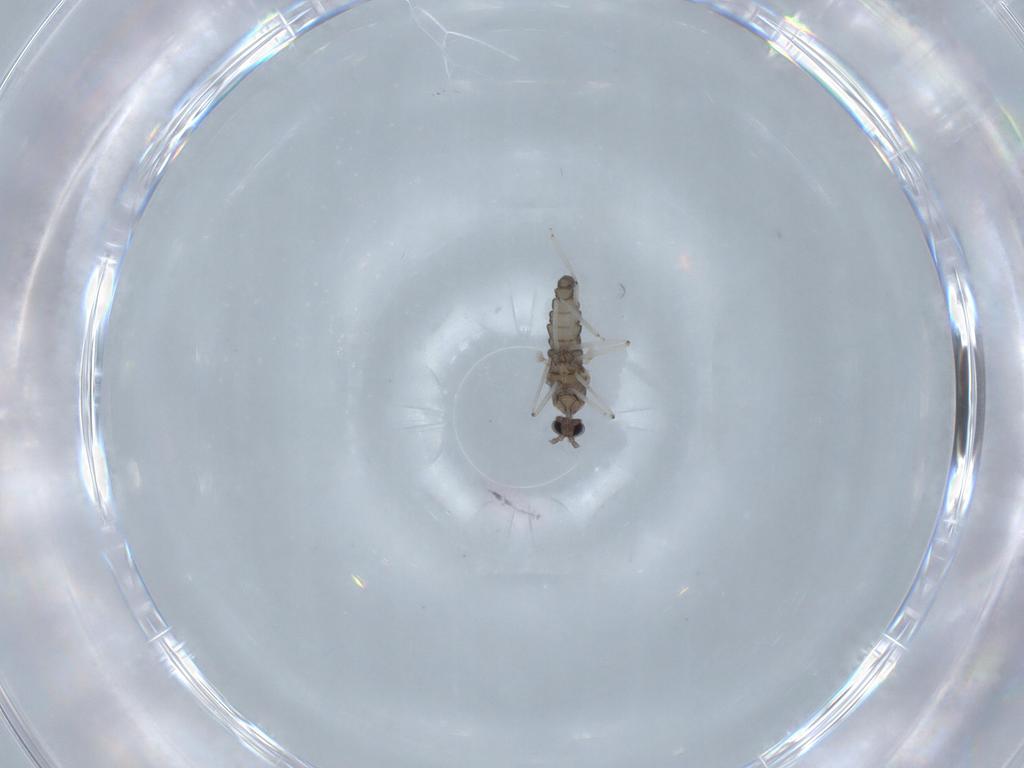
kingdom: Animalia
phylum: Arthropoda
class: Insecta
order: Diptera
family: Cecidomyiidae
